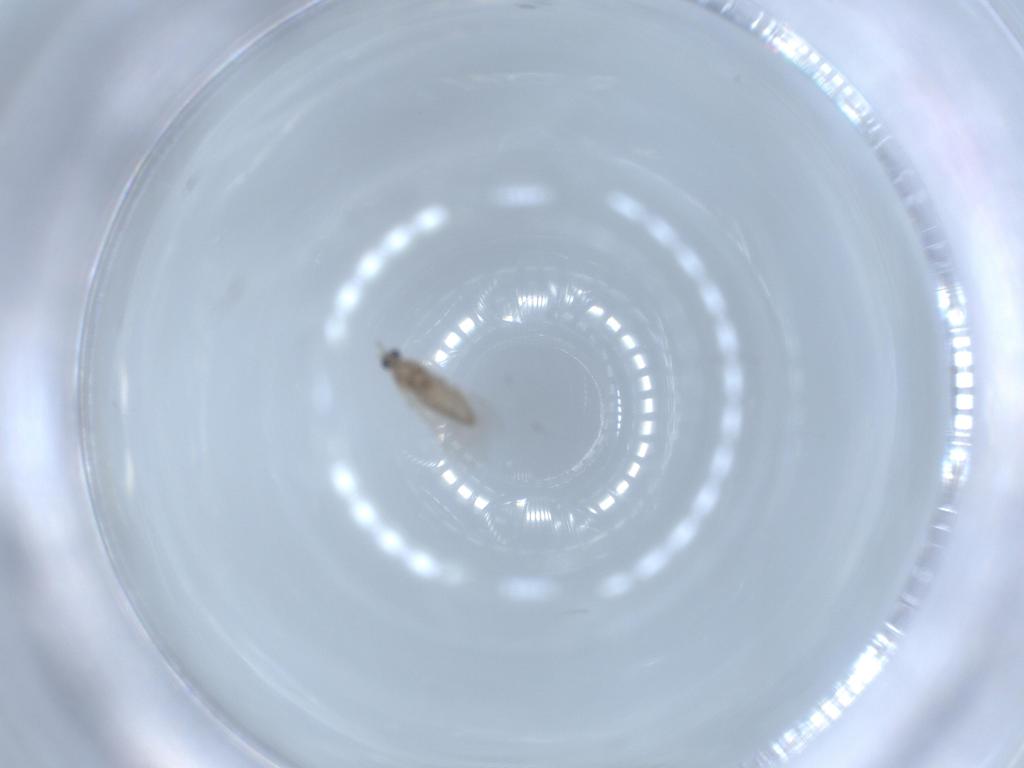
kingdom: Animalia
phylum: Arthropoda
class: Insecta
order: Diptera
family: Cecidomyiidae
